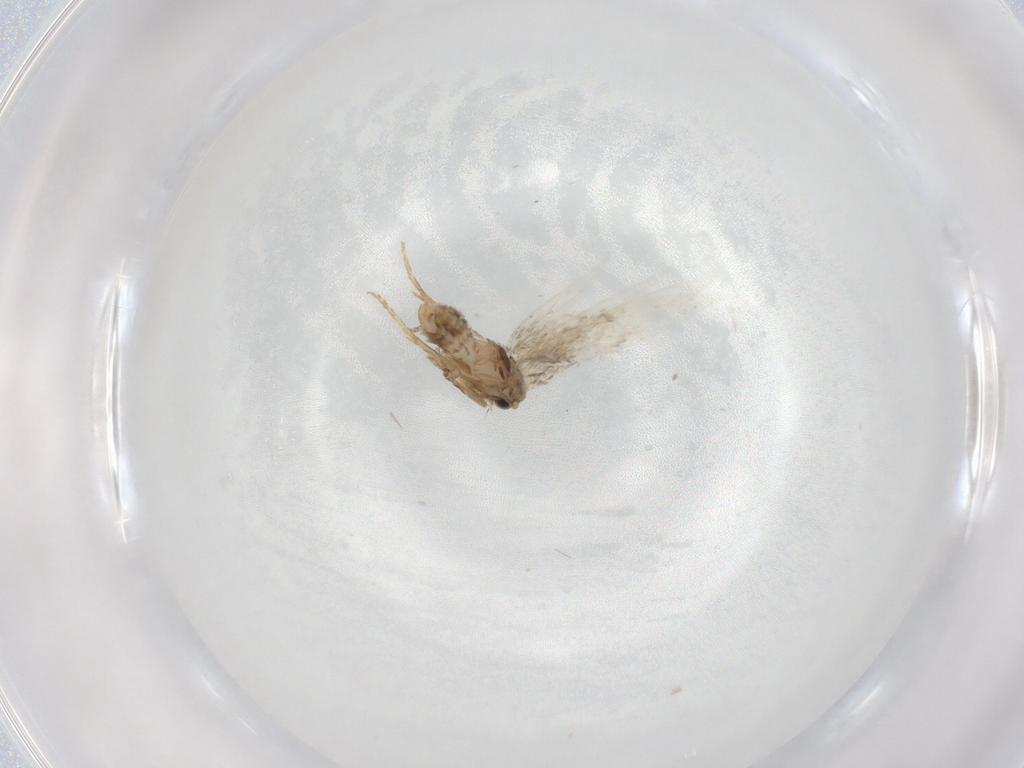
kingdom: Animalia
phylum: Arthropoda
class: Insecta
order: Lepidoptera
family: Nepticulidae
